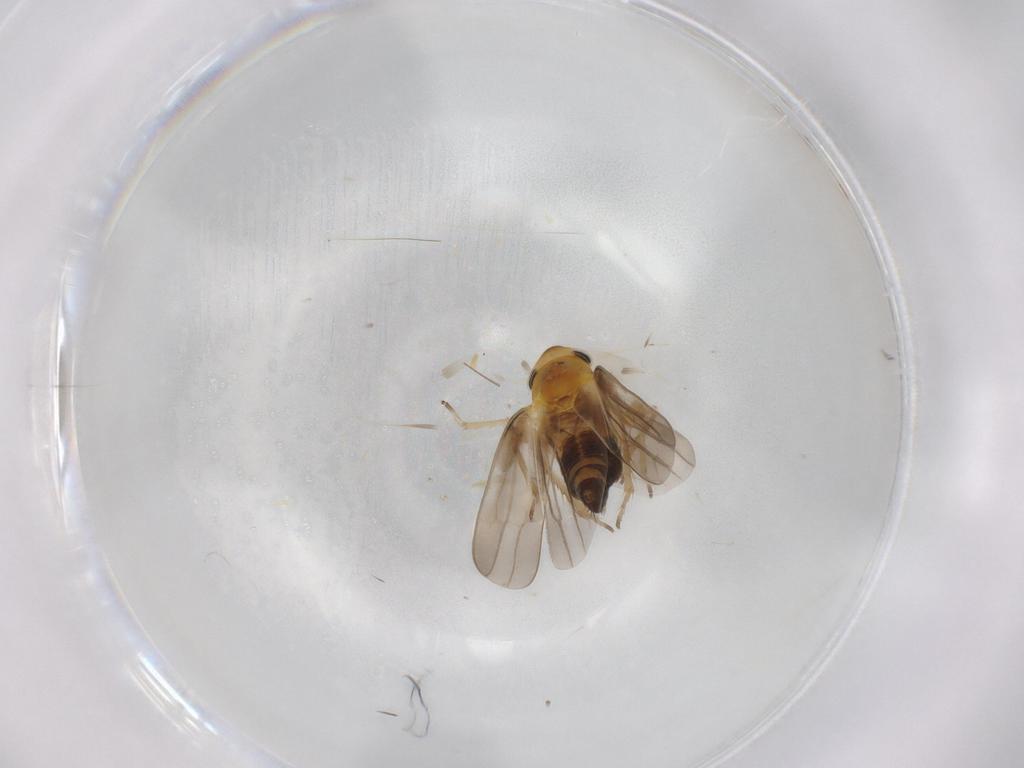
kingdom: Animalia
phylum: Arthropoda
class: Insecta
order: Hemiptera
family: Cicadellidae
